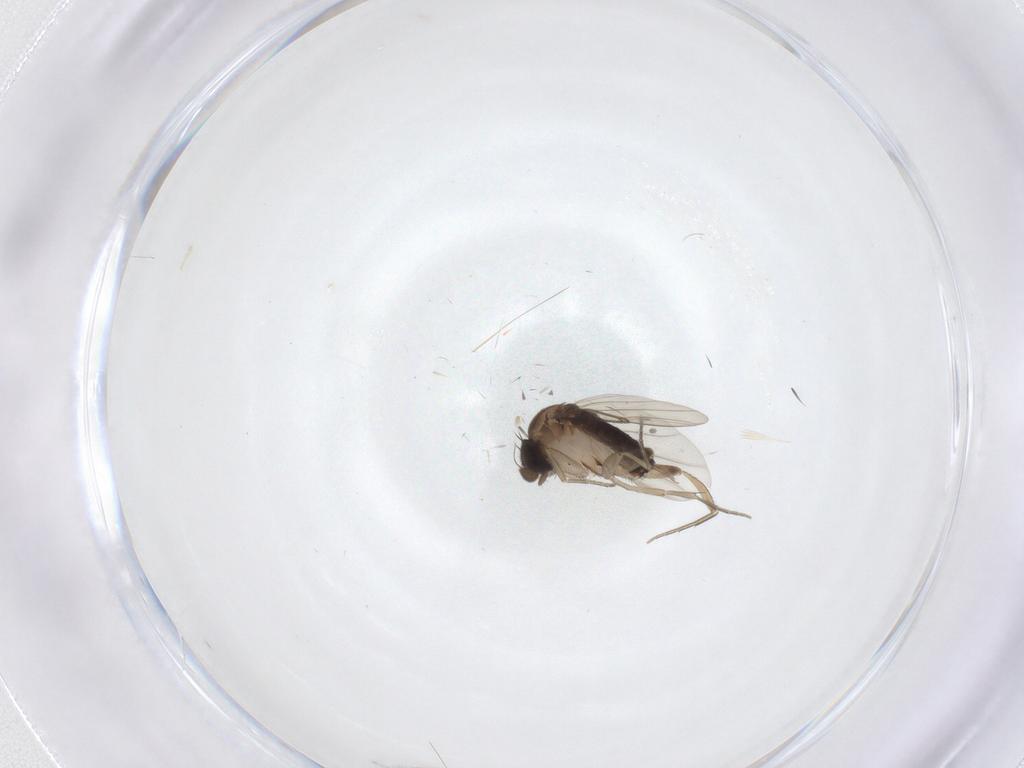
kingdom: Animalia
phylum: Arthropoda
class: Insecta
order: Diptera
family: Phoridae
